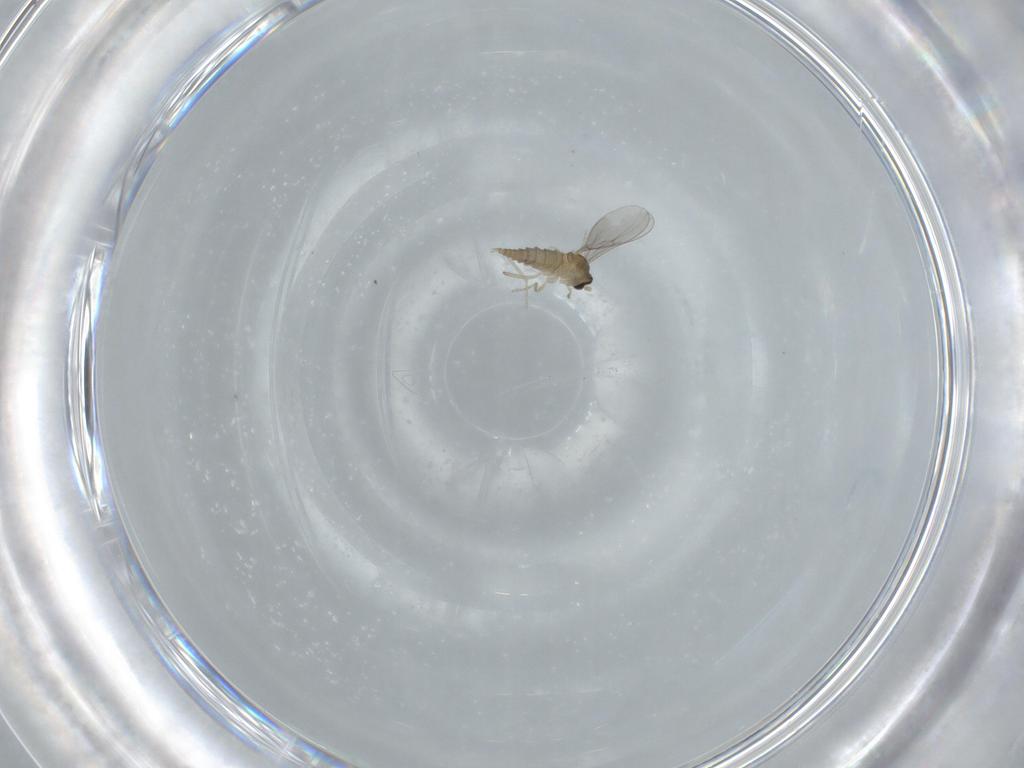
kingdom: Animalia
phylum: Arthropoda
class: Insecta
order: Diptera
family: Cecidomyiidae
